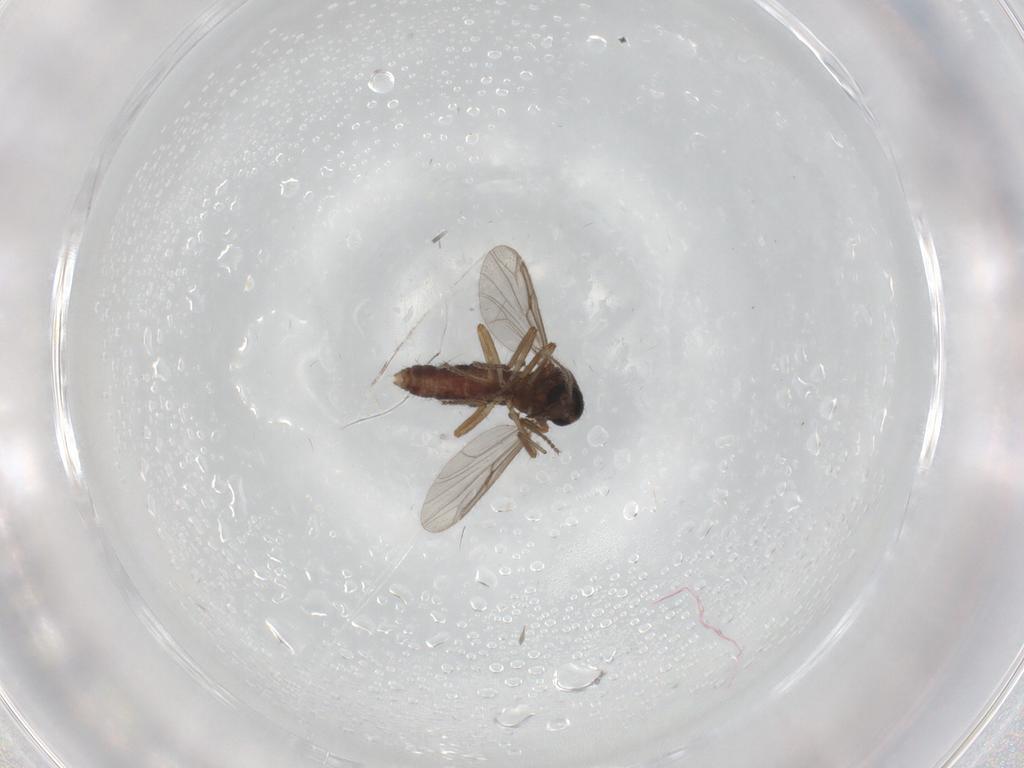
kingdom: Animalia
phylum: Arthropoda
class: Insecta
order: Diptera
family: Ceratopogonidae
